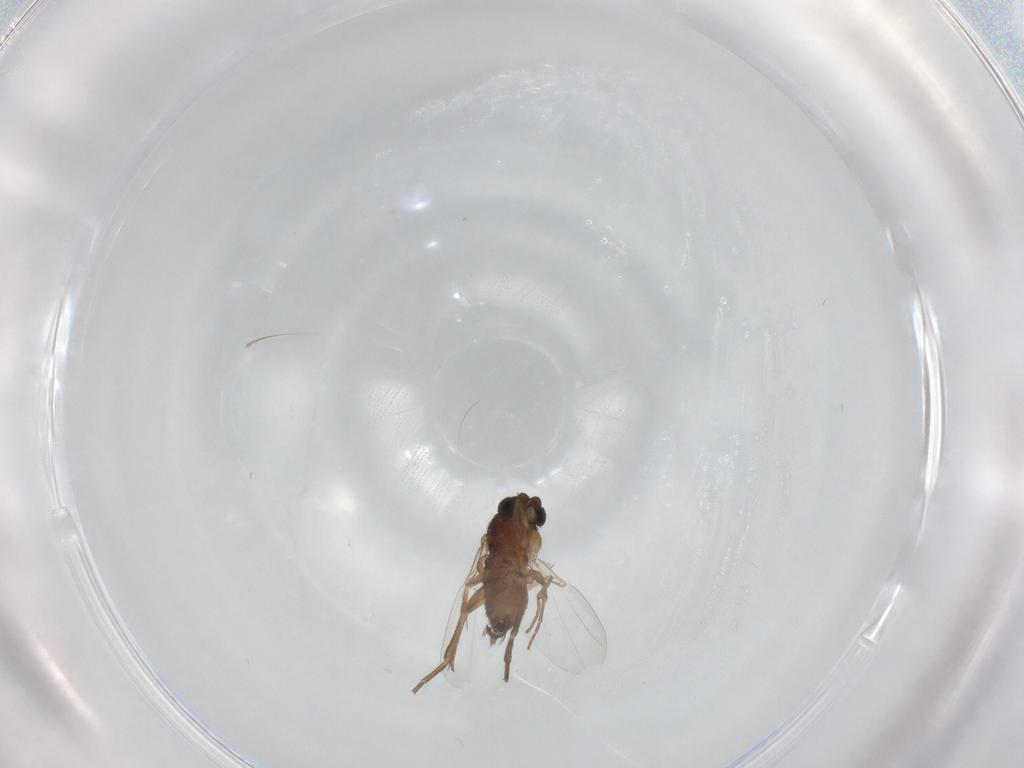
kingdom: Animalia
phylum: Arthropoda
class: Insecta
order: Diptera
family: Phoridae
